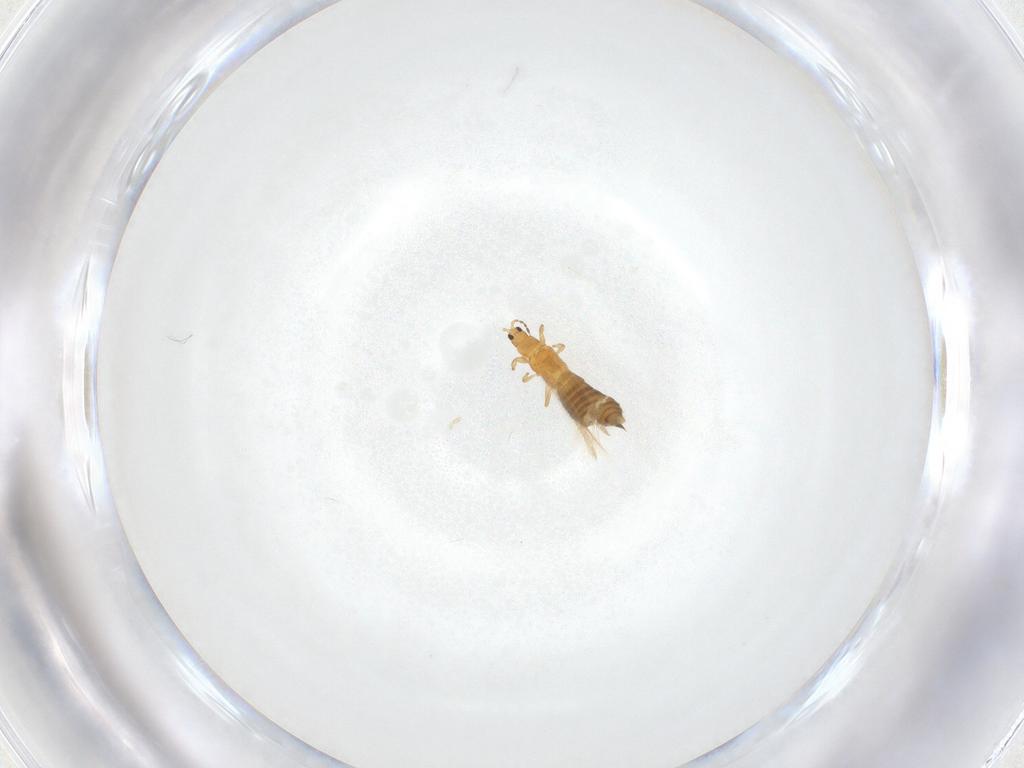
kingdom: Animalia
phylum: Arthropoda
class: Insecta
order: Thysanoptera
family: Thripidae
